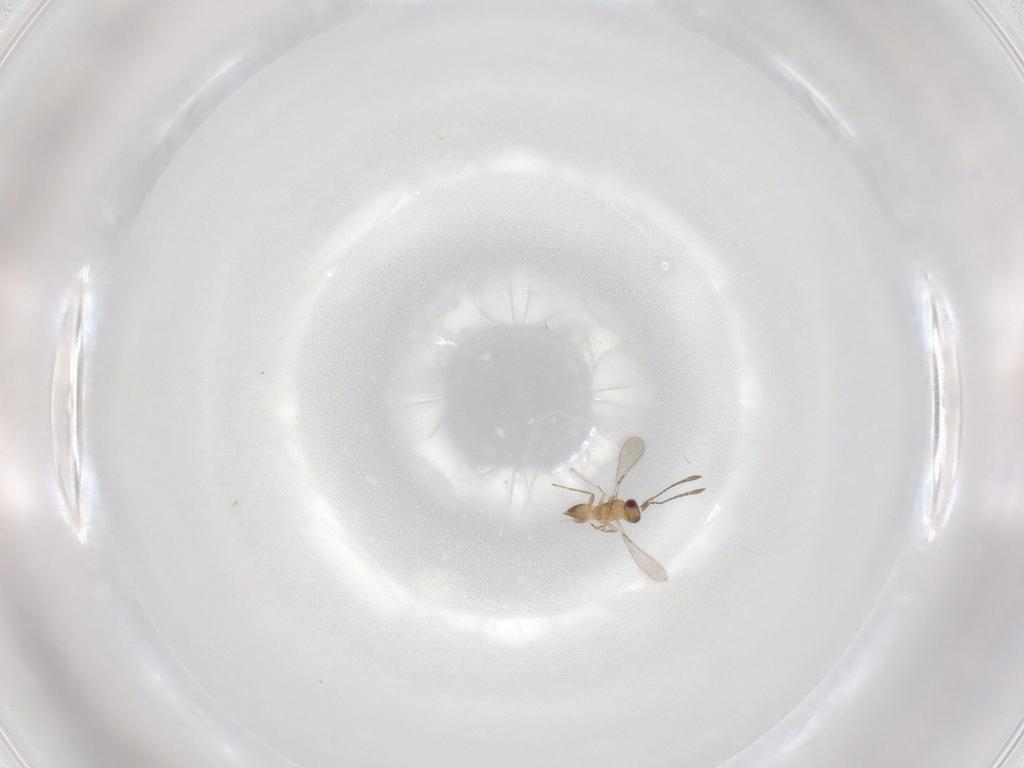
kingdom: Animalia
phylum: Arthropoda
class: Insecta
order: Hymenoptera
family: Mymaridae
